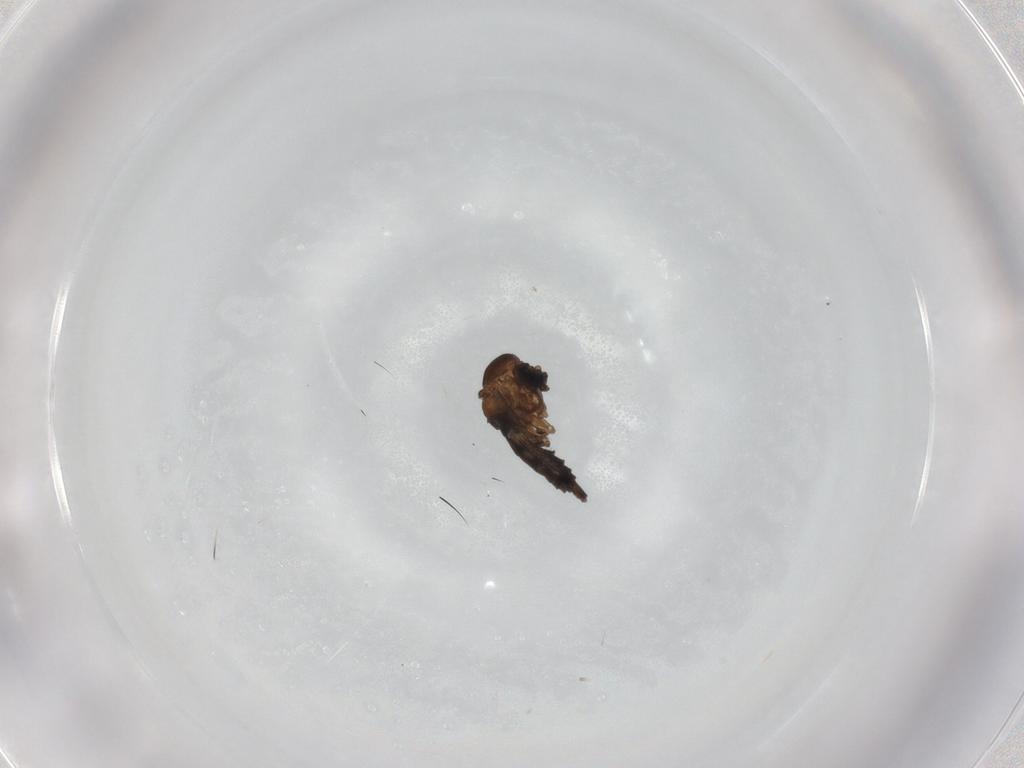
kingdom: Animalia
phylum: Arthropoda
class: Insecta
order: Diptera
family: Sciaridae
